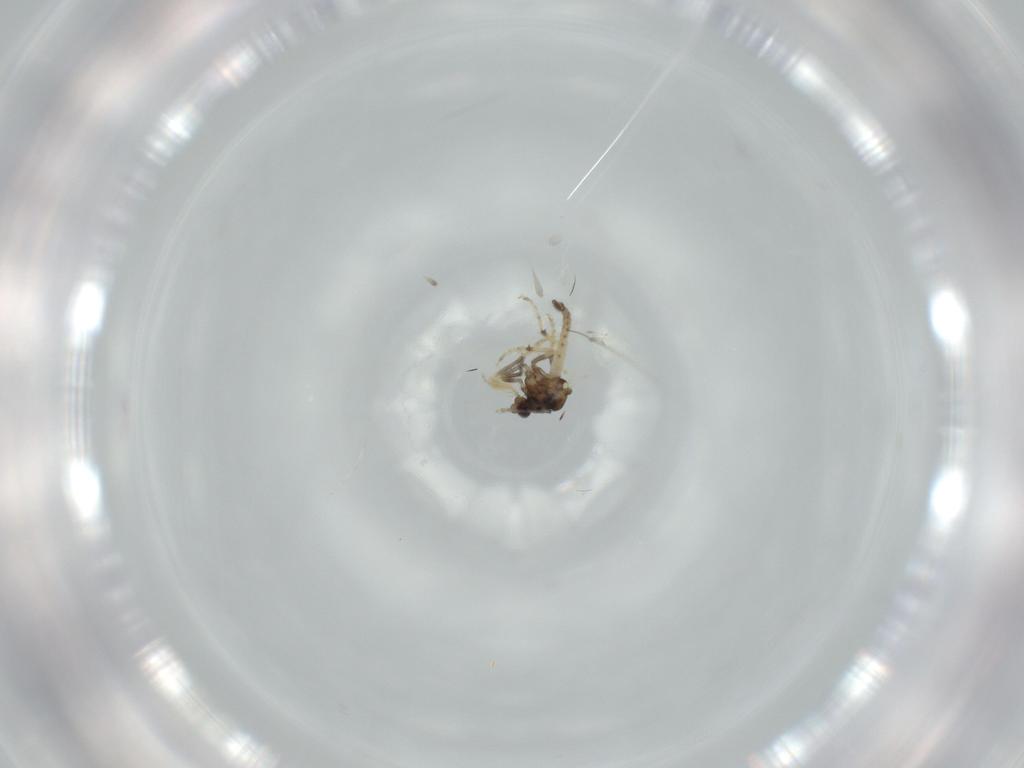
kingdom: Animalia
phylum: Arthropoda
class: Insecta
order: Diptera
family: Ceratopogonidae
